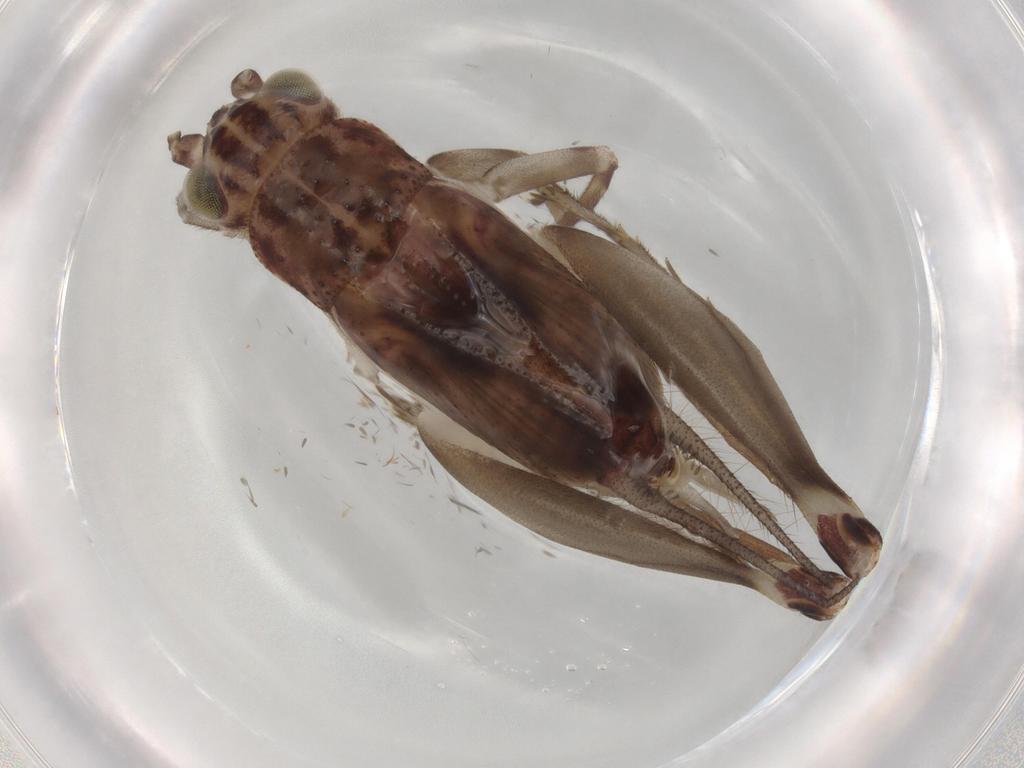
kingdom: Animalia
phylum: Arthropoda
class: Insecta
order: Orthoptera
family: Trigonidiidae
